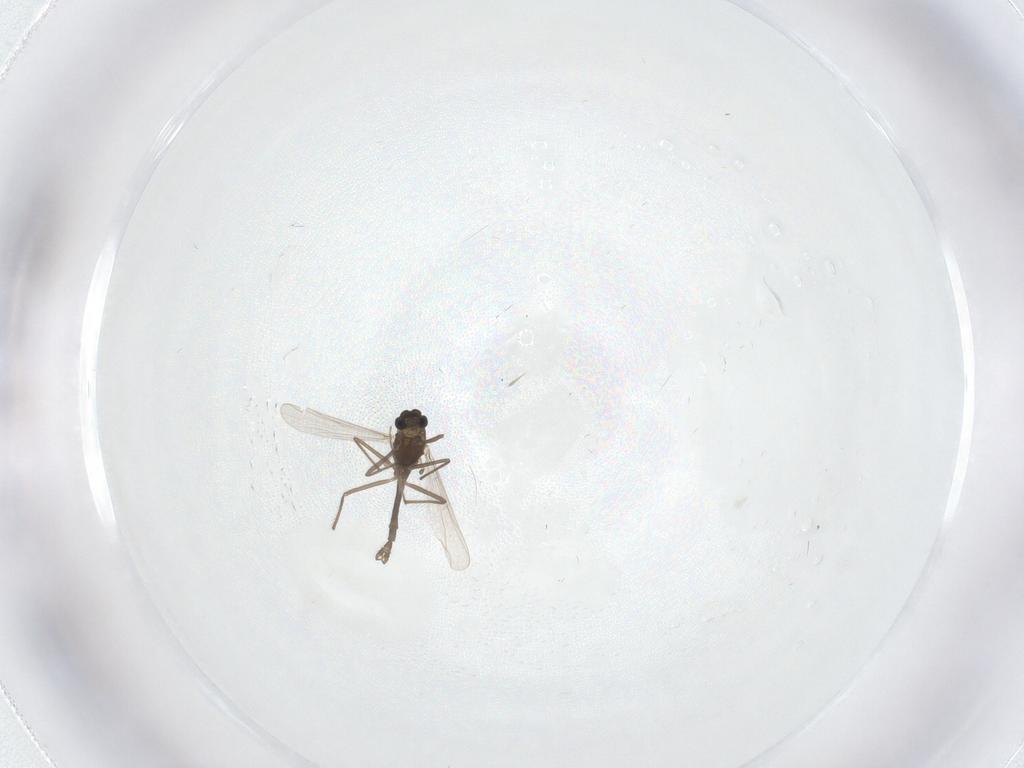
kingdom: Animalia
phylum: Arthropoda
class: Insecta
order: Diptera
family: Chironomidae
